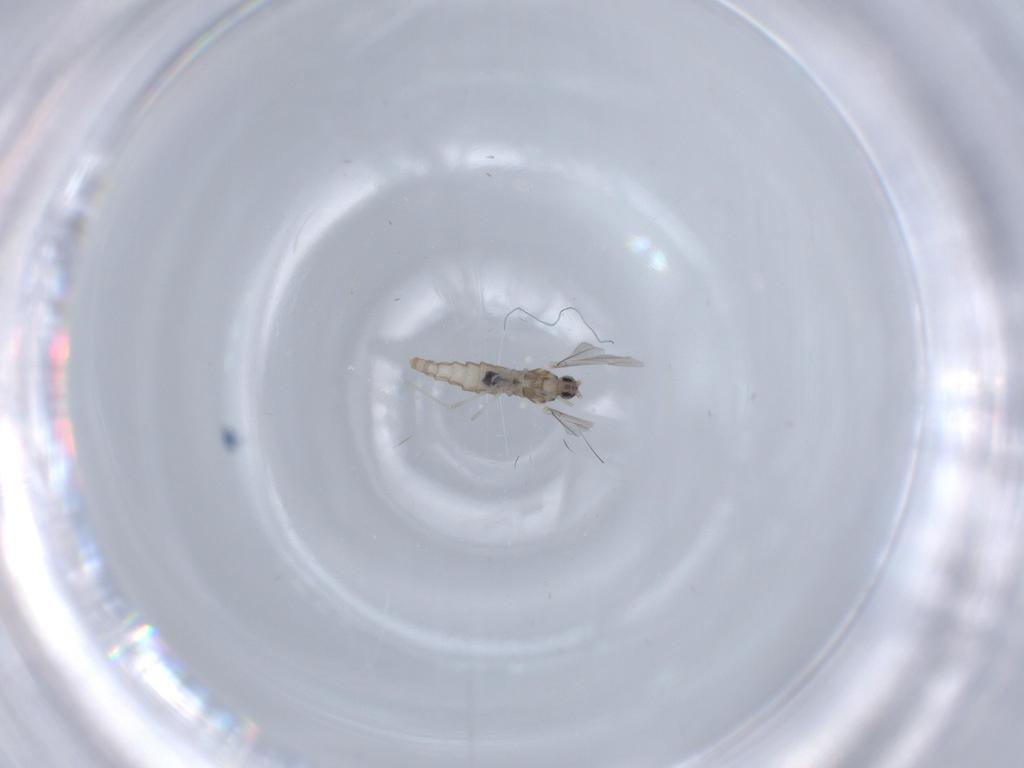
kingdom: Animalia
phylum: Arthropoda
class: Insecta
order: Diptera
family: Cecidomyiidae
